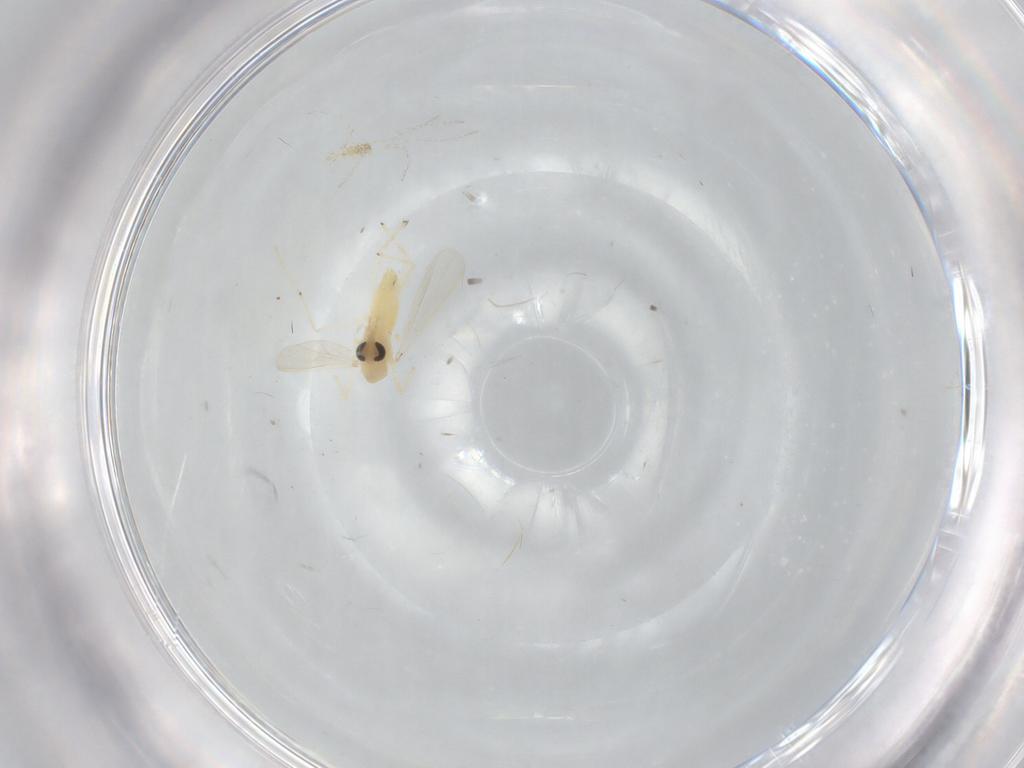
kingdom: Animalia
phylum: Arthropoda
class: Insecta
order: Diptera
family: Chironomidae
